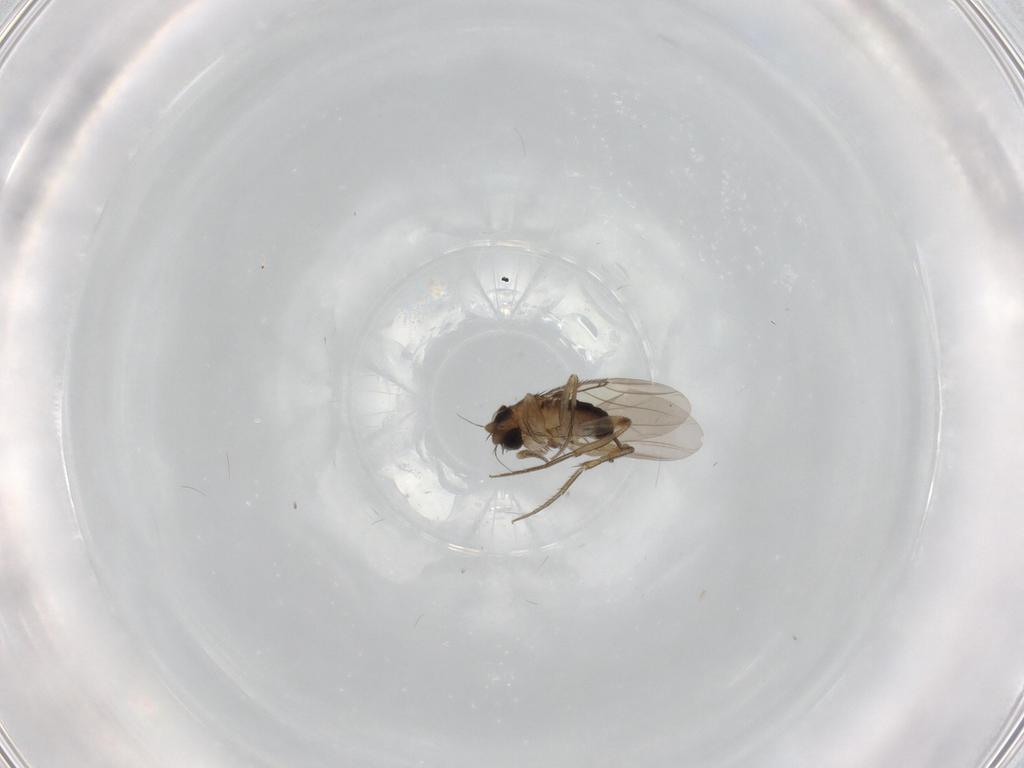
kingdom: Animalia
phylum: Arthropoda
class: Insecta
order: Diptera
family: Phoridae
